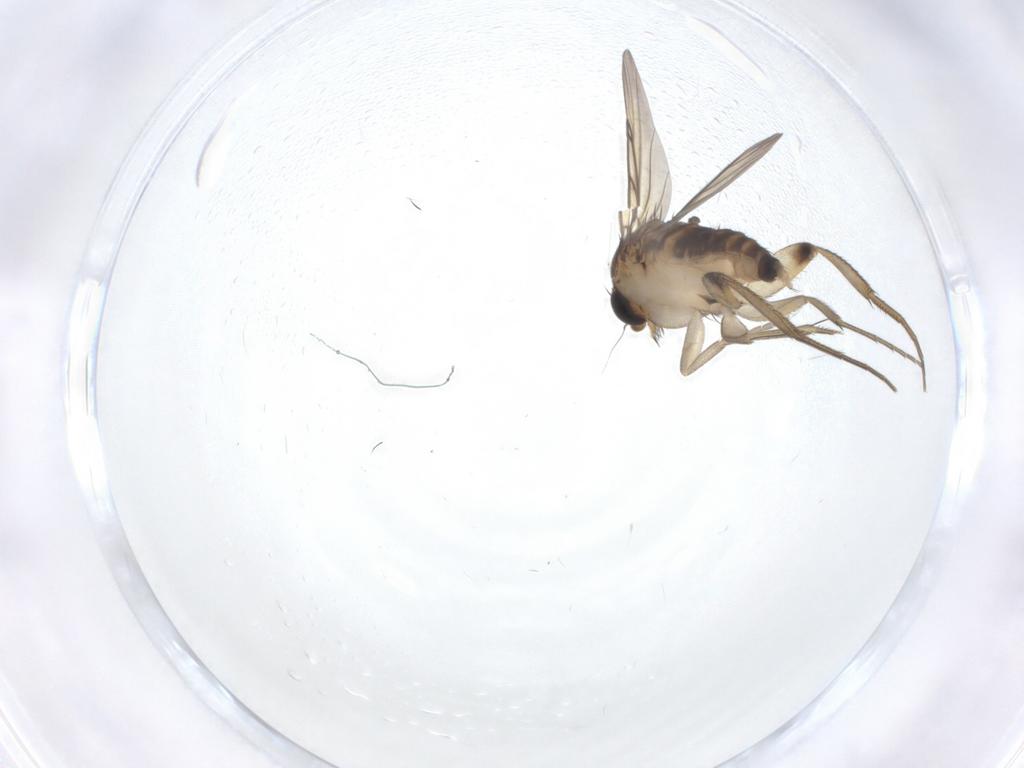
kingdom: Animalia
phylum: Arthropoda
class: Insecta
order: Diptera
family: Phoridae
